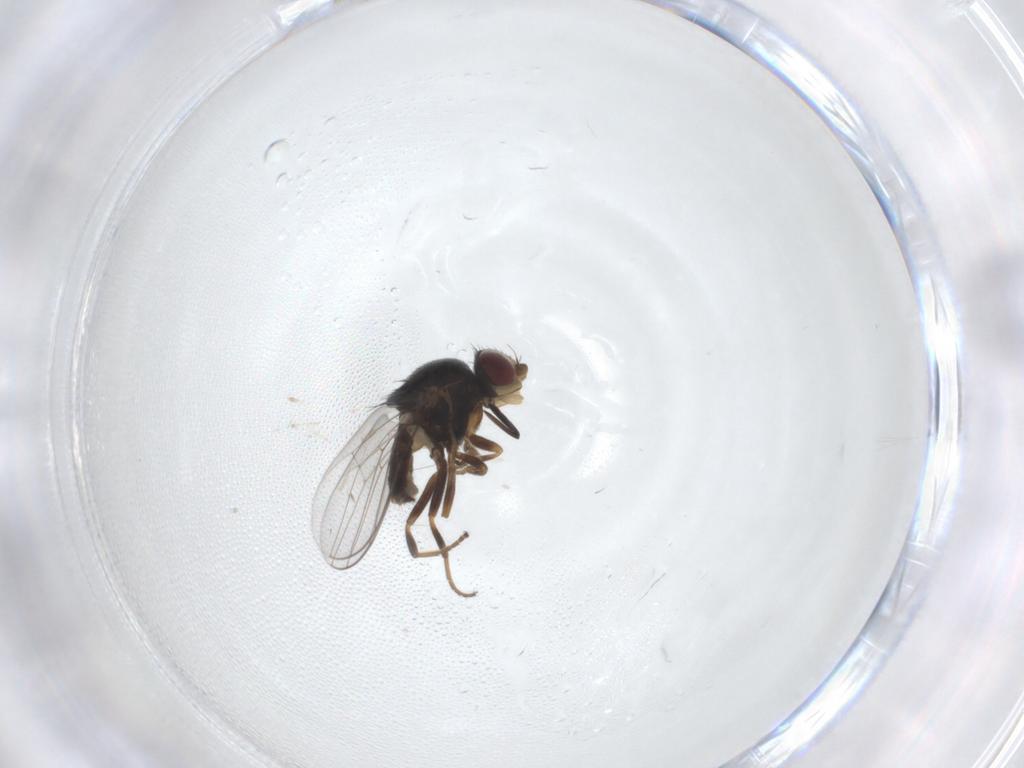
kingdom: Animalia
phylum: Arthropoda
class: Insecta
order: Diptera
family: Chloropidae
